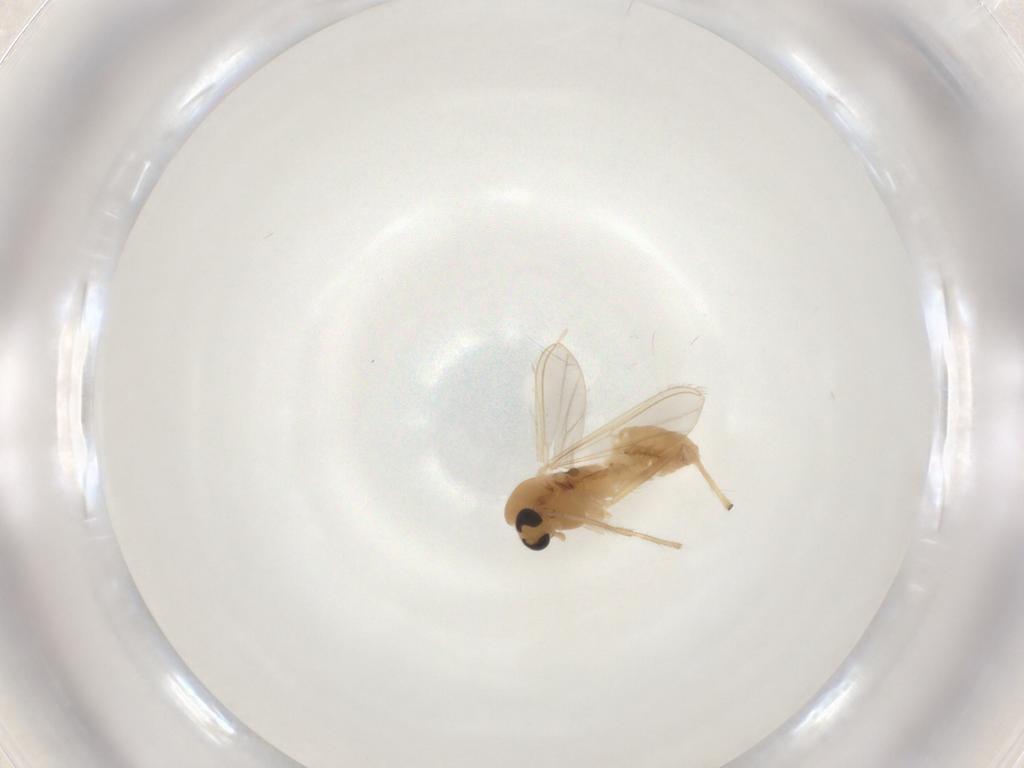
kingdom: Animalia
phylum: Arthropoda
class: Insecta
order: Diptera
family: Chironomidae
